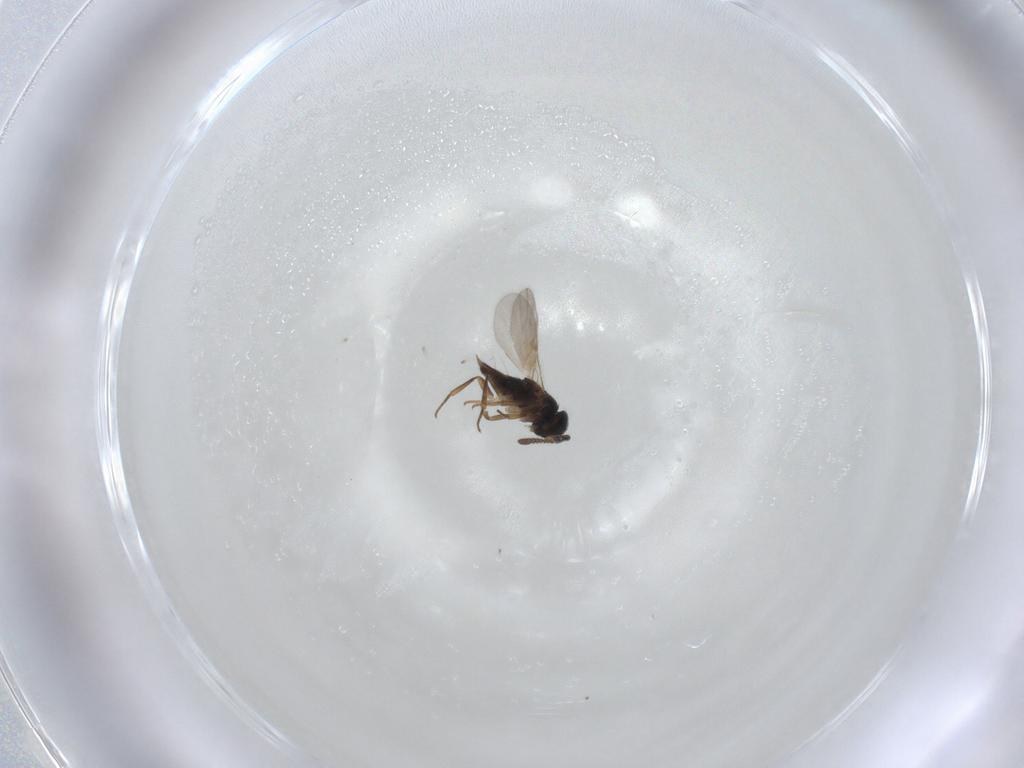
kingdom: Animalia
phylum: Arthropoda
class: Insecta
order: Hymenoptera
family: Encyrtidae
